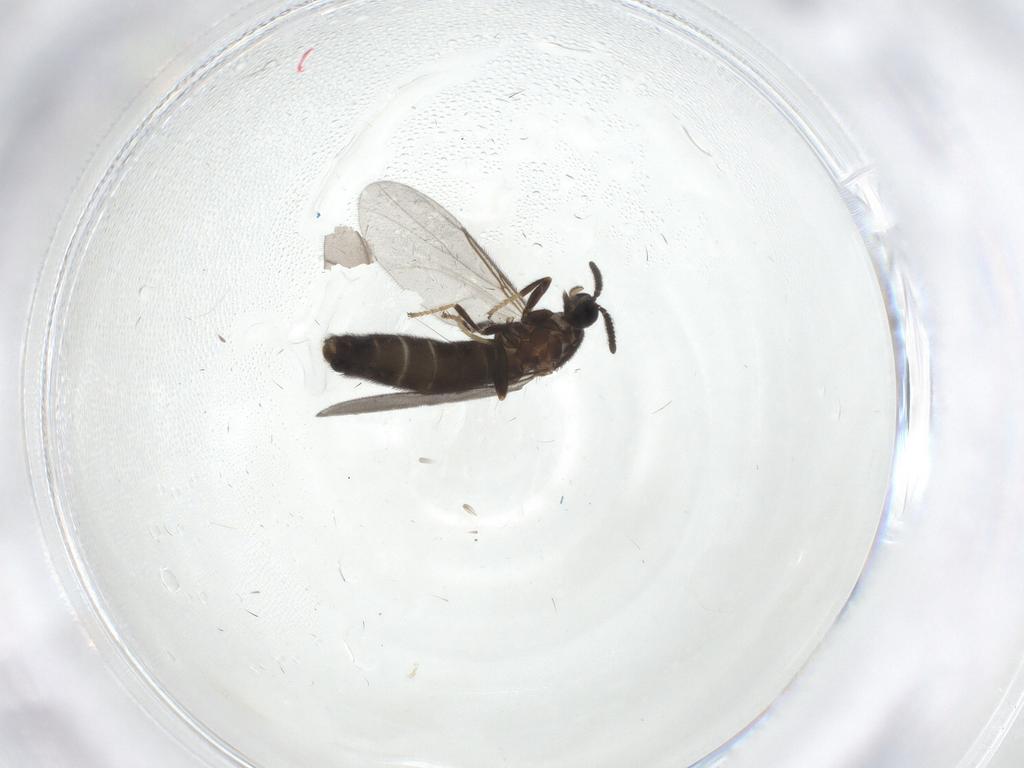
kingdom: Animalia
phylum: Arthropoda
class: Insecta
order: Diptera
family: Scatopsidae
